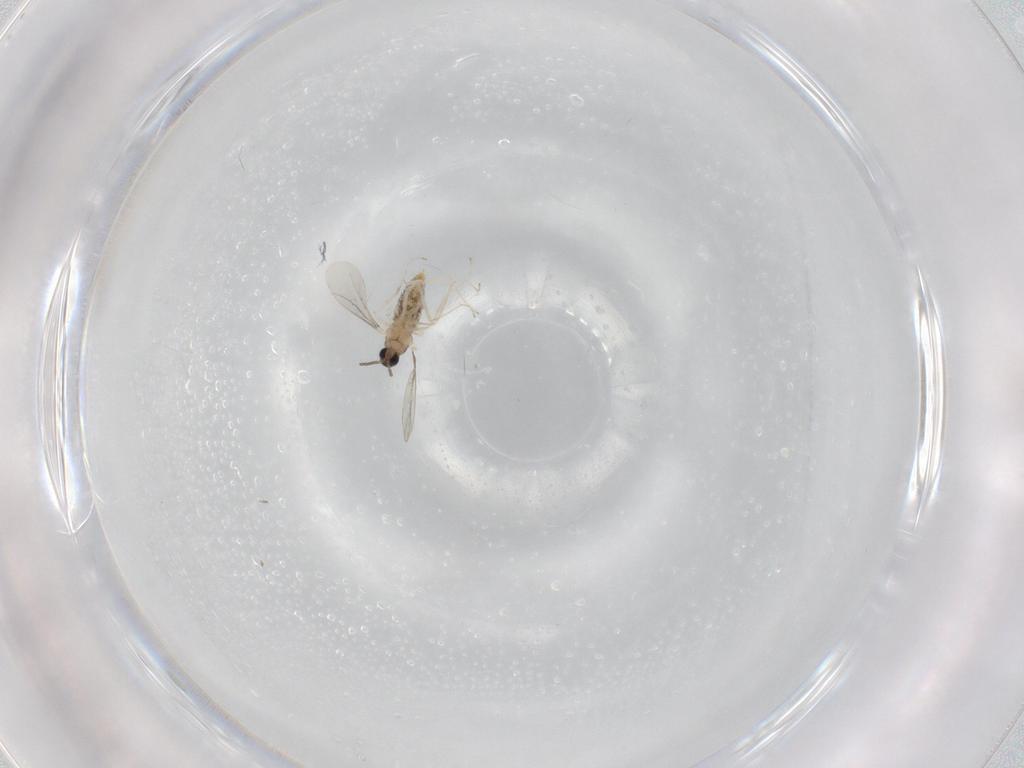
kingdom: Animalia
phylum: Arthropoda
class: Insecta
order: Diptera
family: Cecidomyiidae
